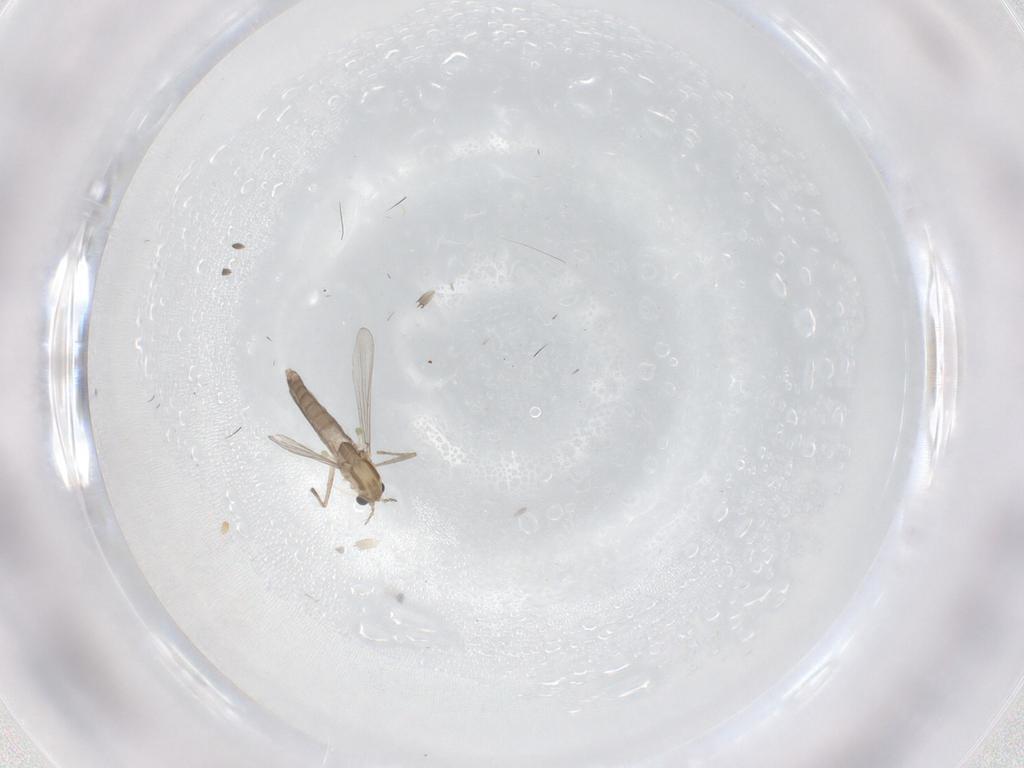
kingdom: Animalia
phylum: Arthropoda
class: Insecta
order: Diptera
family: Chironomidae
